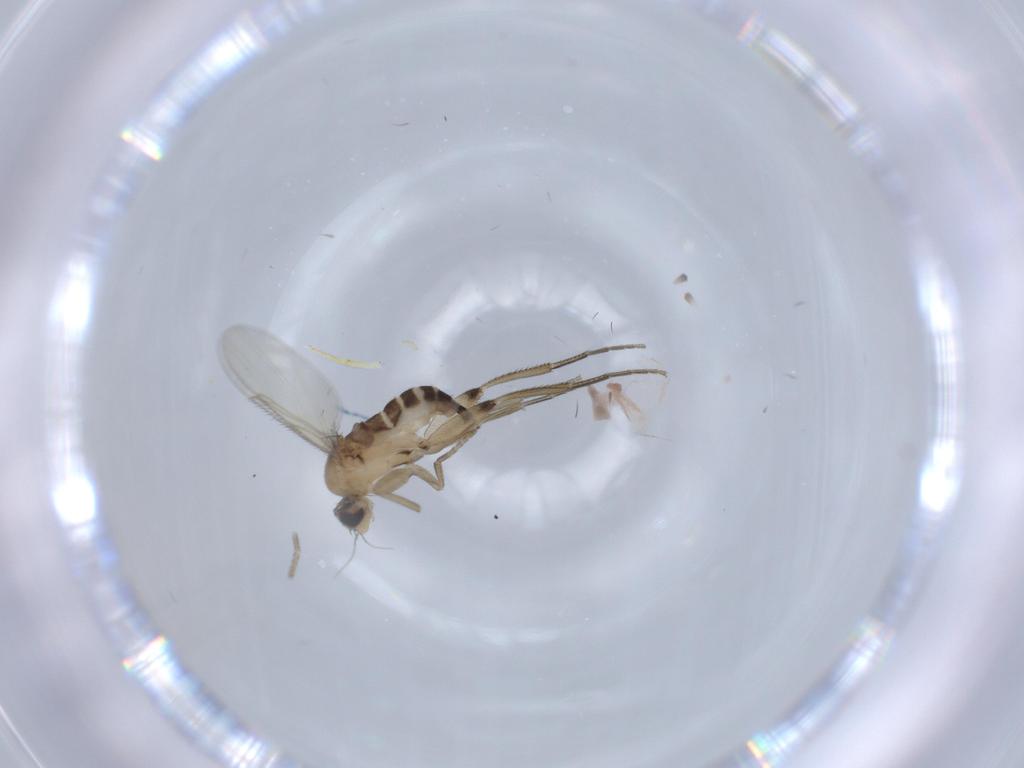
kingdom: Animalia
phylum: Arthropoda
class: Insecta
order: Diptera
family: Phoridae
